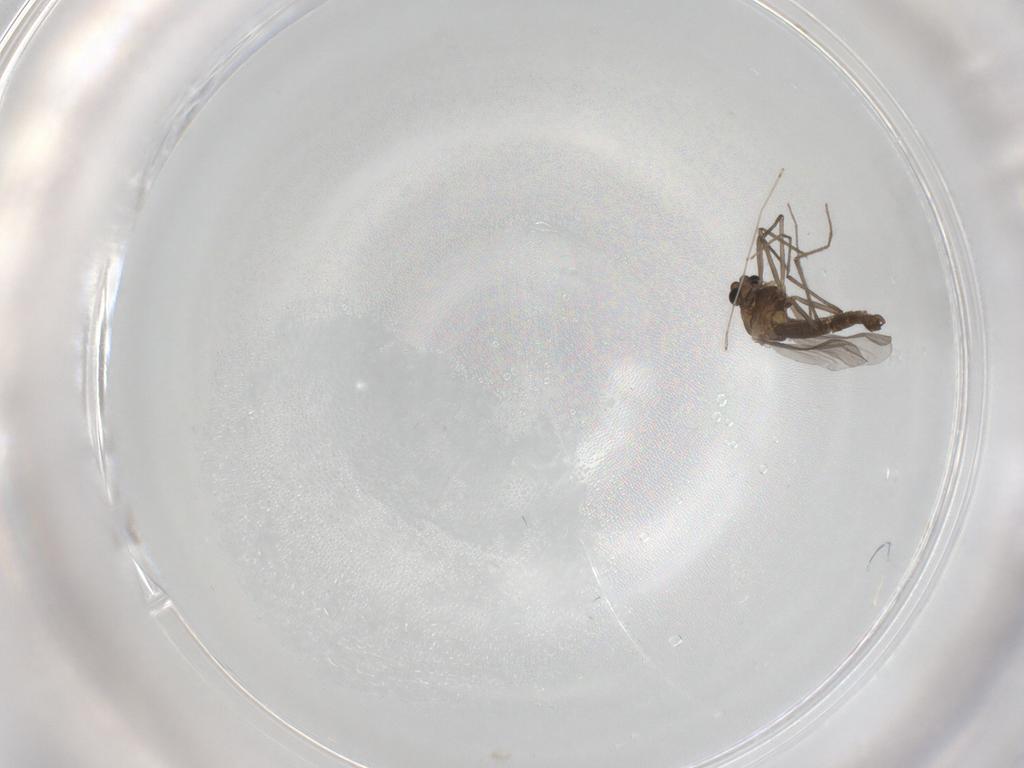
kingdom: Animalia
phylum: Arthropoda
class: Insecta
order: Diptera
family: Chironomidae
